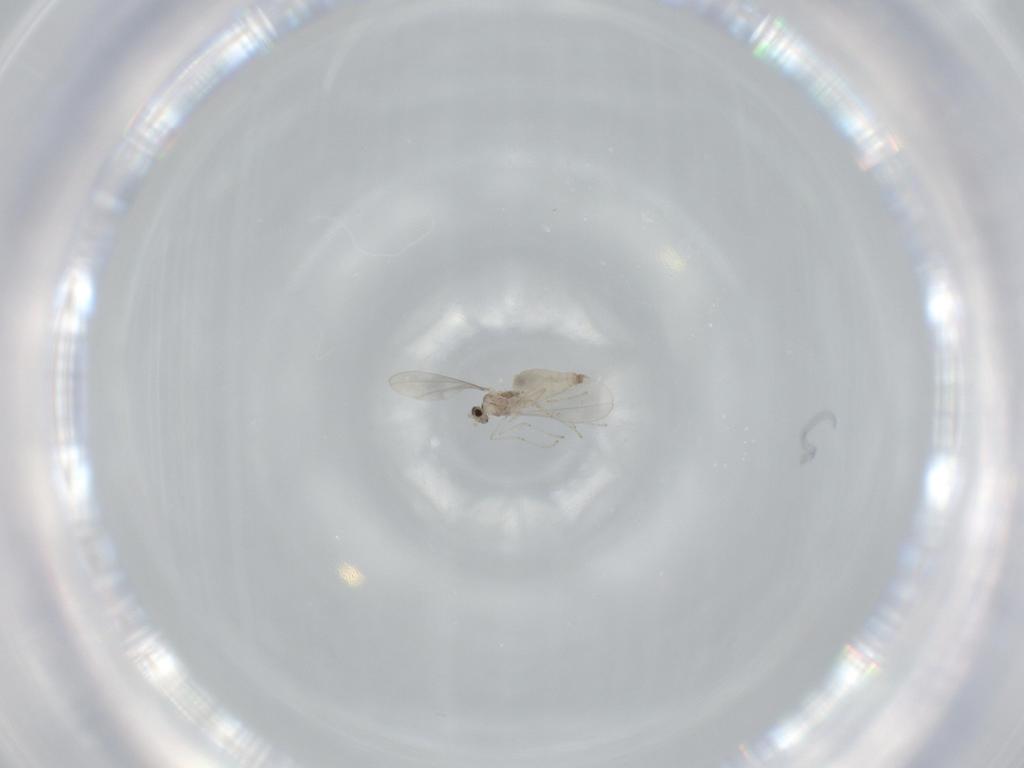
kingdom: Animalia
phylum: Arthropoda
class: Insecta
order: Diptera
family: Cecidomyiidae
